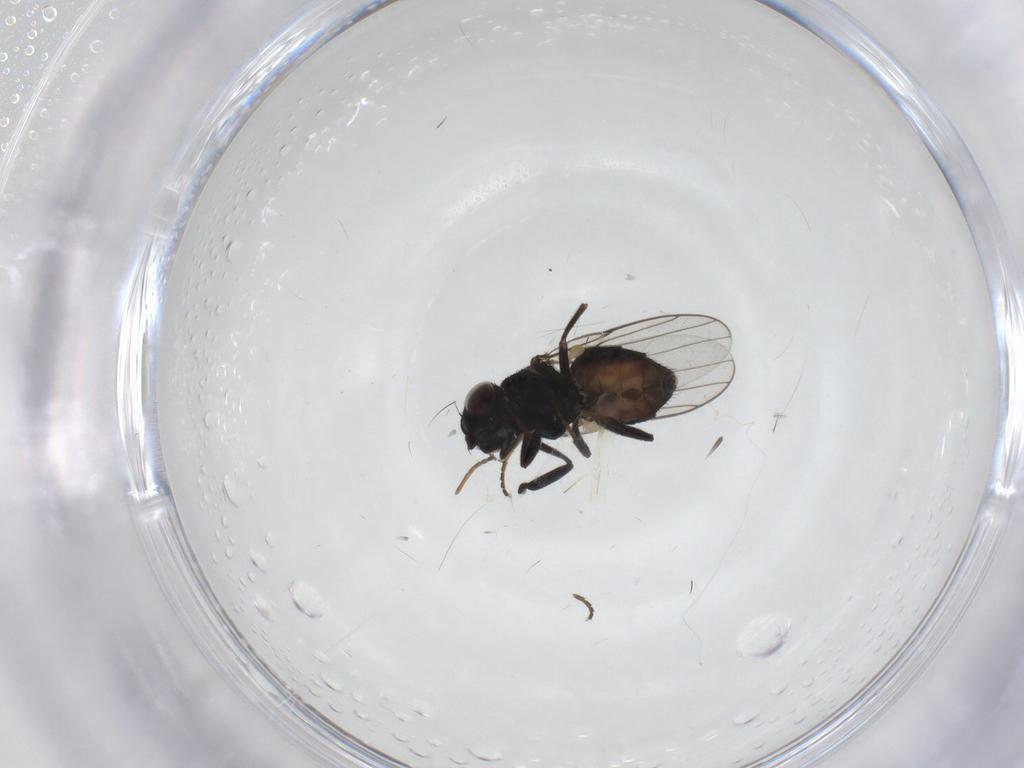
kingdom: Animalia
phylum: Arthropoda
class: Insecta
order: Diptera
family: Chloropidae
